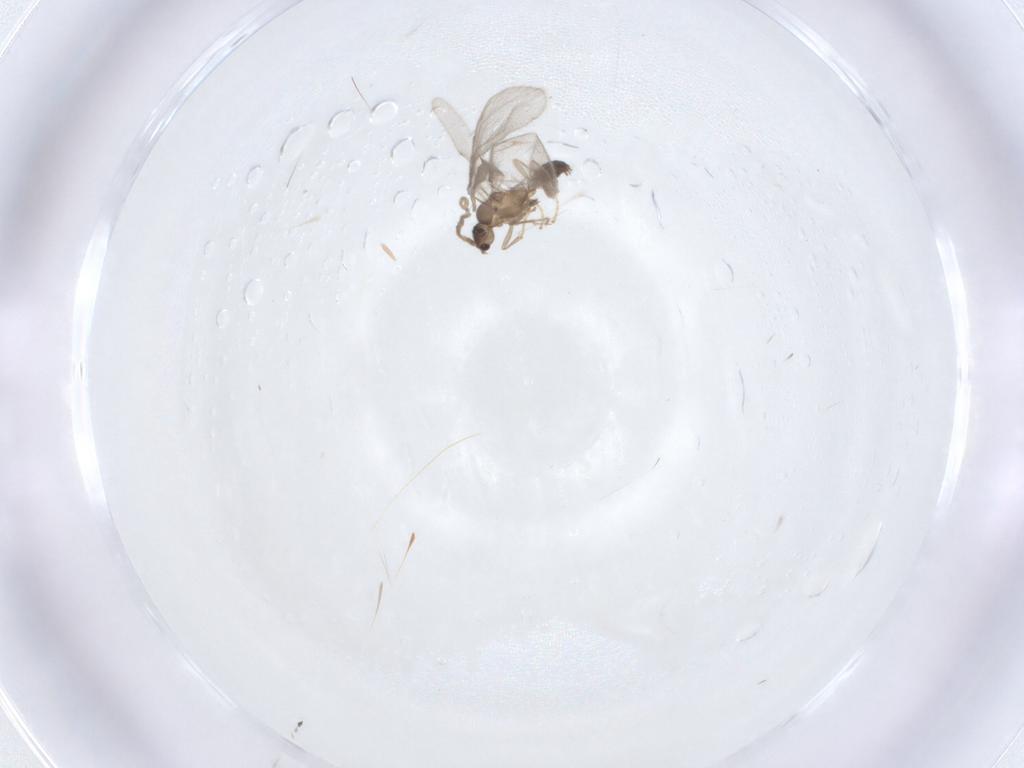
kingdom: Animalia
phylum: Arthropoda
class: Insecta
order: Hymenoptera
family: Formicidae
